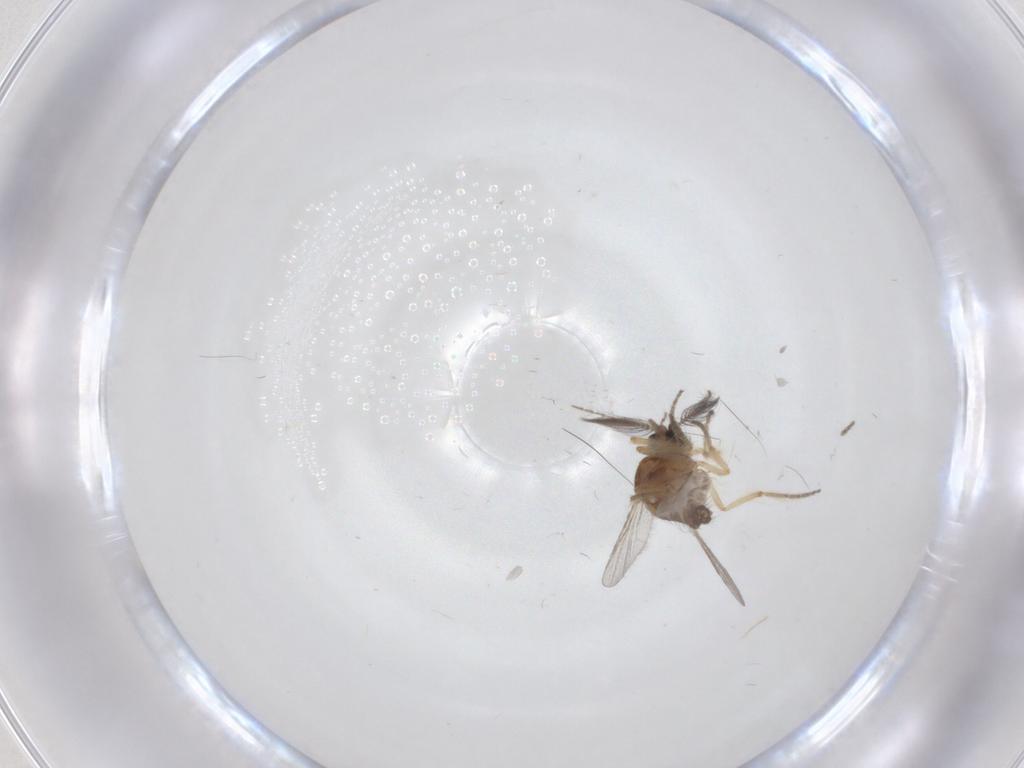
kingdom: Animalia
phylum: Arthropoda
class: Insecta
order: Diptera
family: Ceratopogonidae
